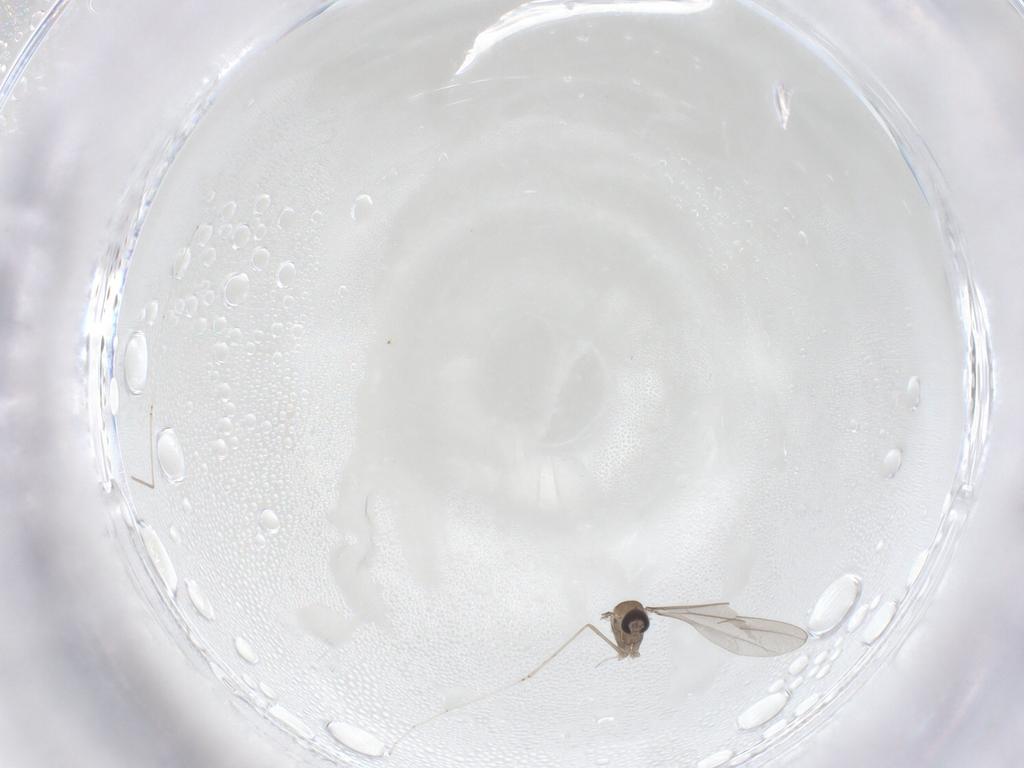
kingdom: Animalia
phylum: Arthropoda
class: Insecta
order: Diptera
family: Cecidomyiidae
